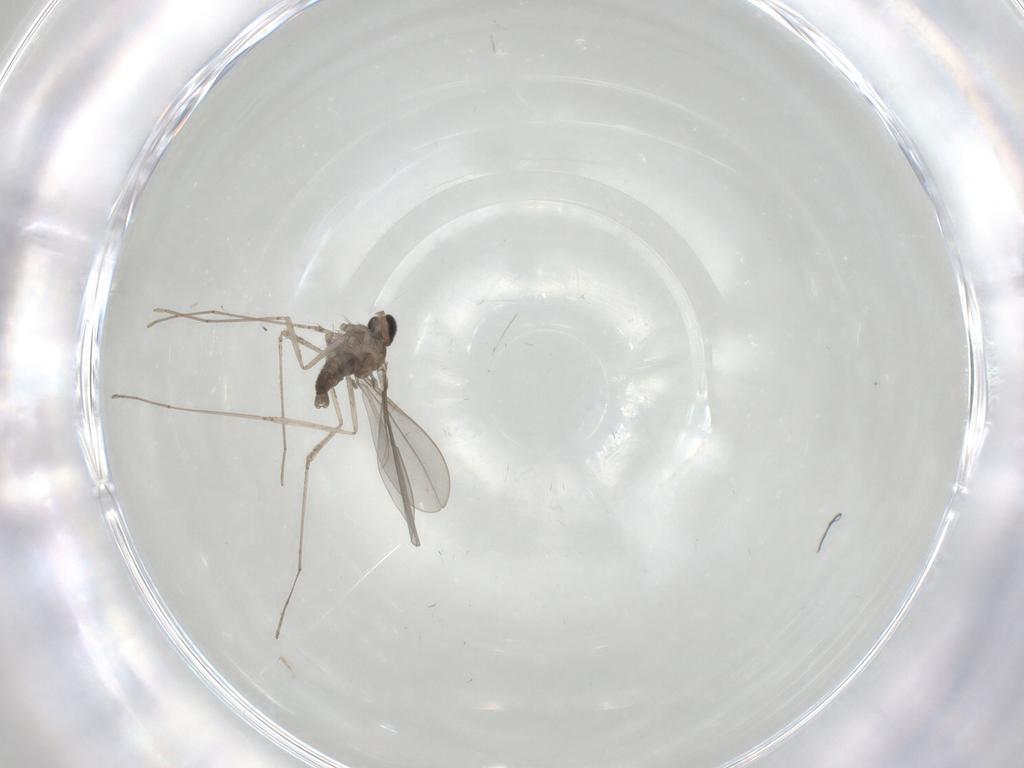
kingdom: Animalia
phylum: Arthropoda
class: Insecta
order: Diptera
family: Cecidomyiidae
